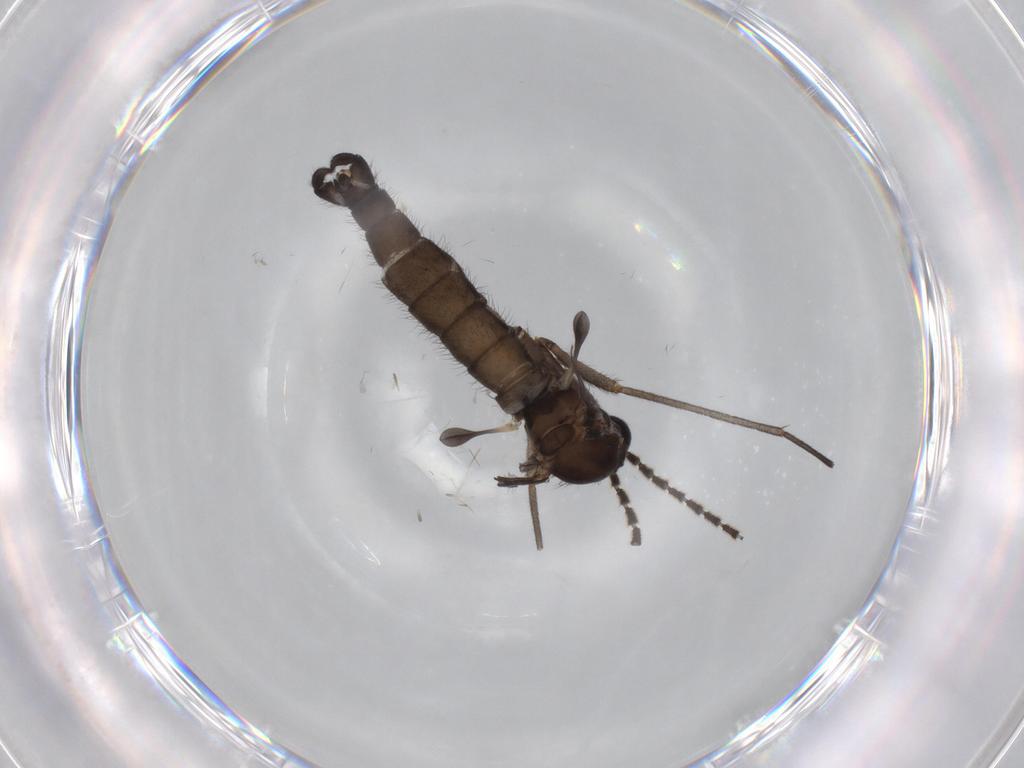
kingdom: Animalia
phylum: Arthropoda
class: Insecta
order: Diptera
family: Sciaridae
